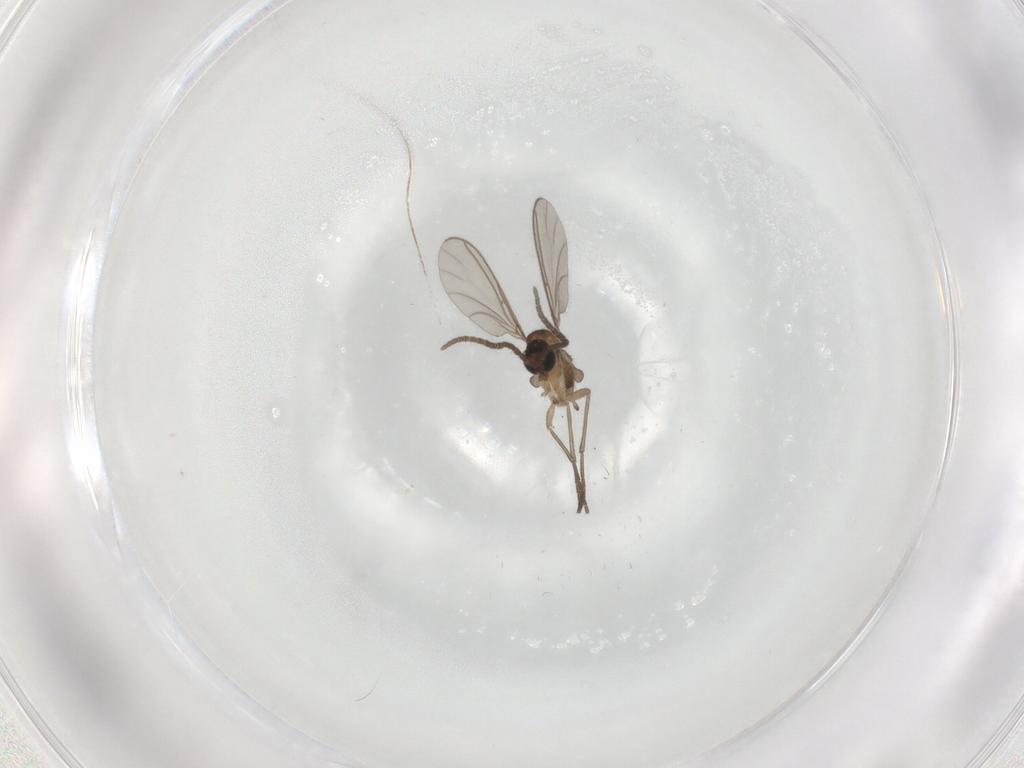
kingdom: Animalia
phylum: Arthropoda
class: Insecta
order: Diptera
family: Sciaridae
